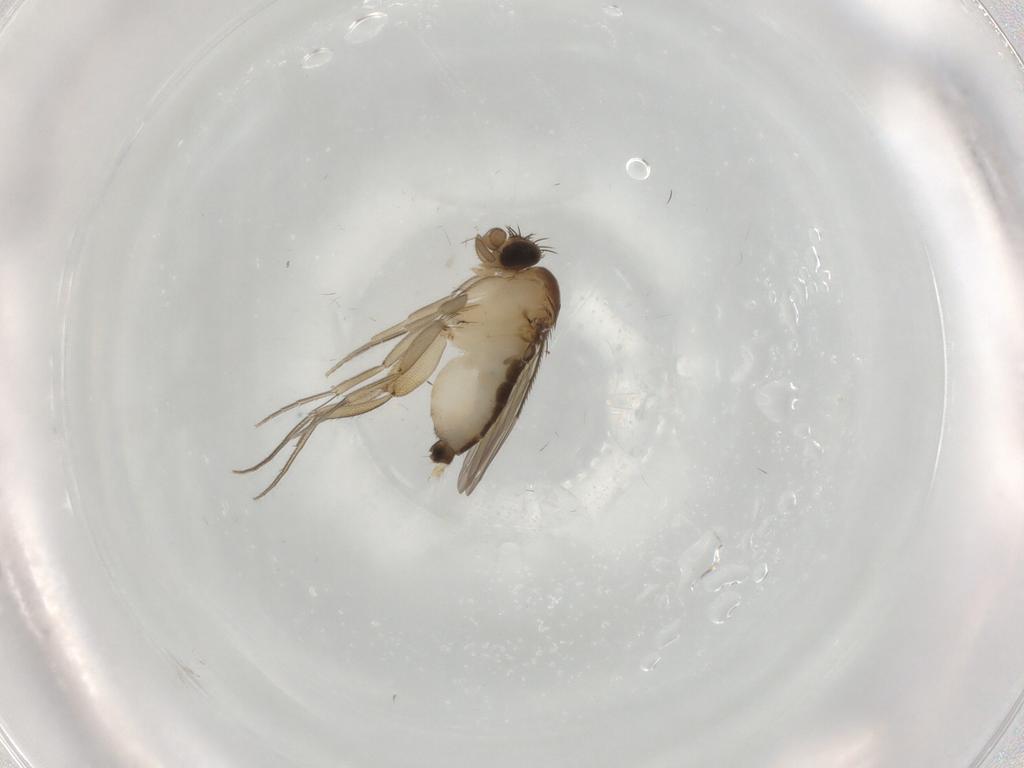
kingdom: Animalia
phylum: Arthropoda
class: Insecta
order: Diptera
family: Phoridae
